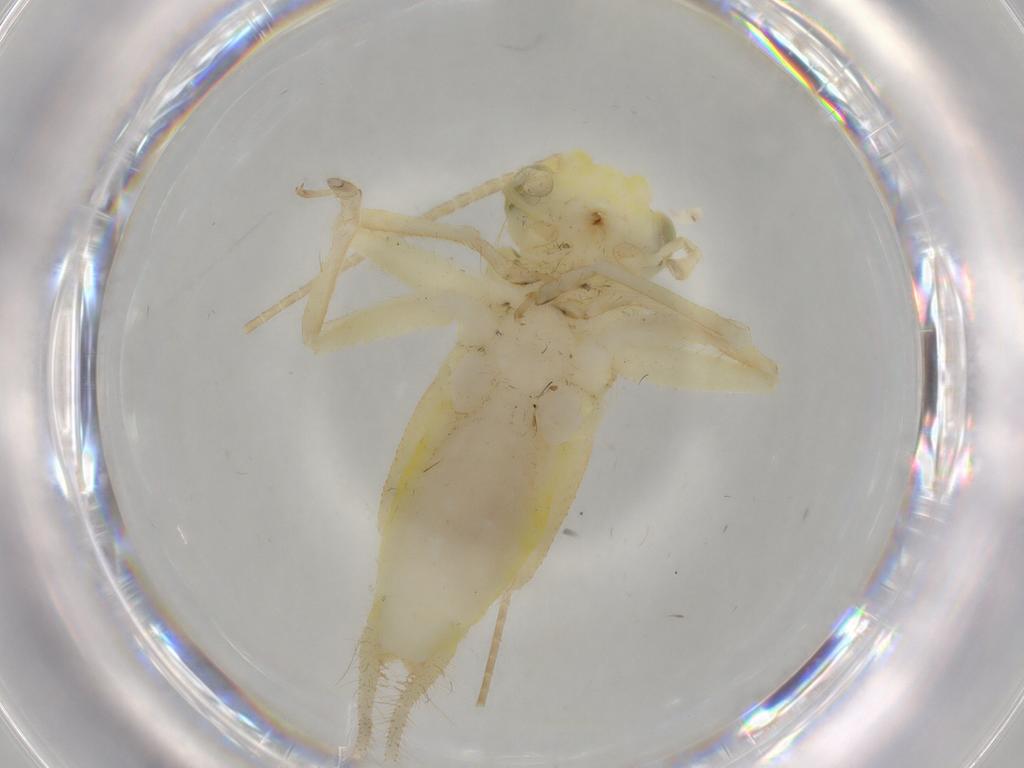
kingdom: Animalia
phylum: Arthropoda
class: Insecta
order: Orthoptera
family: Trigonidiidae
